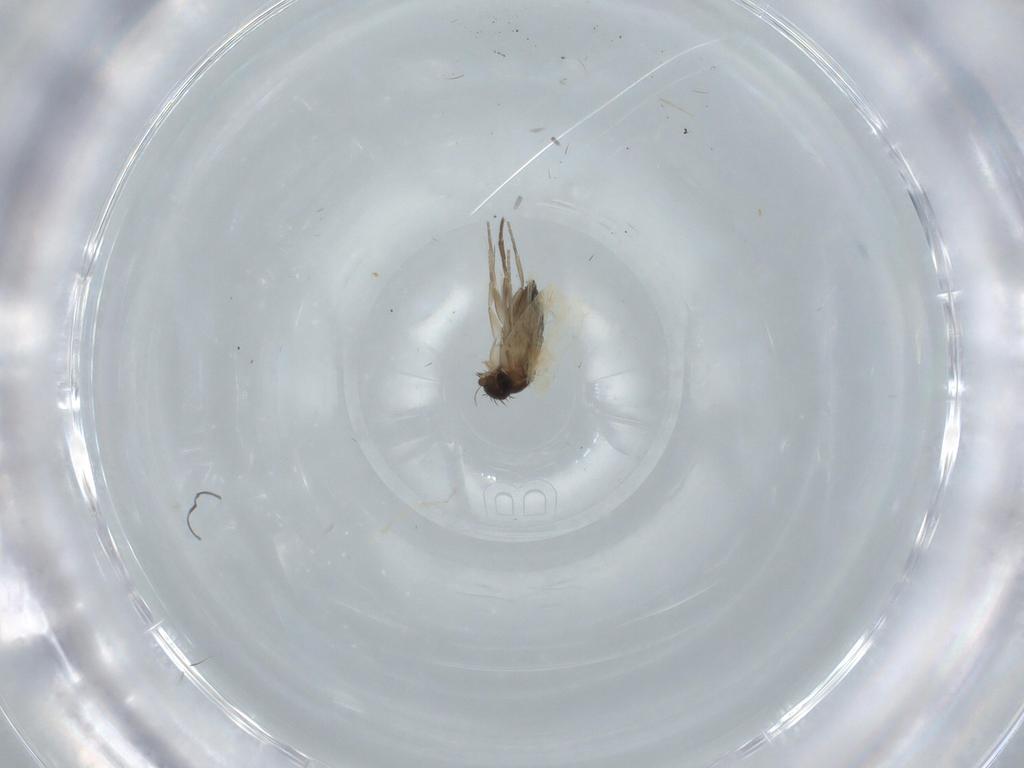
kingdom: Animalia
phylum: Arthropoda
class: Insecta
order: Diptera
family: Phoridae
